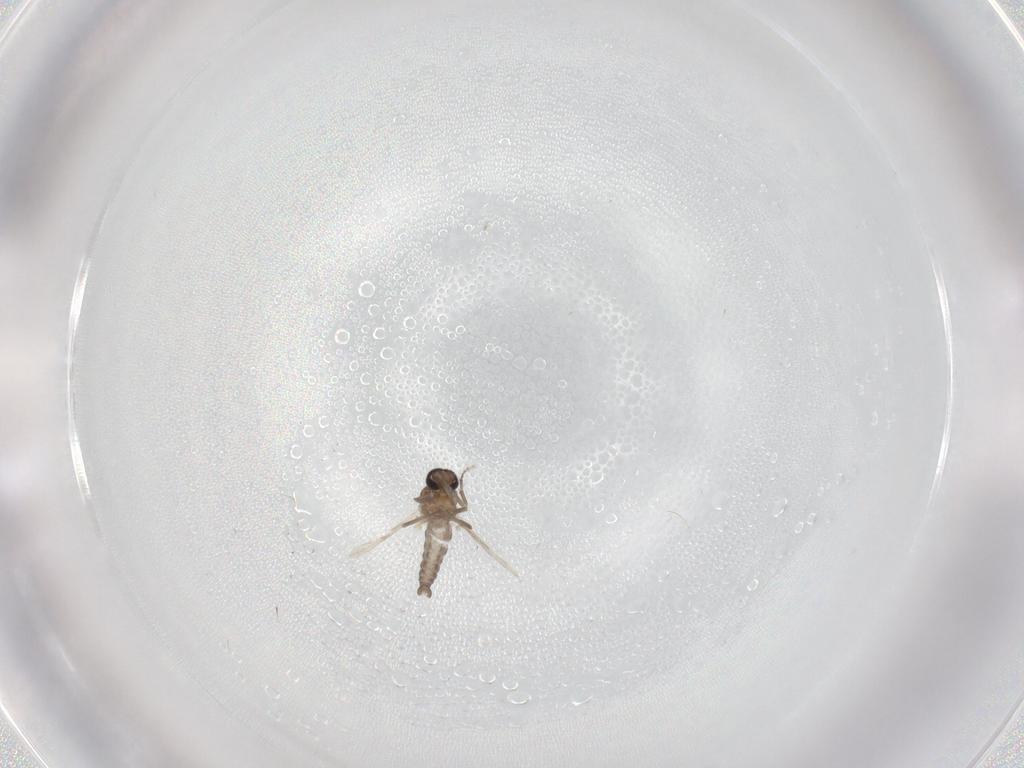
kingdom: Animalia
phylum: Arthropoda
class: Insecta
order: Diptera
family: Ceratopogonidae
